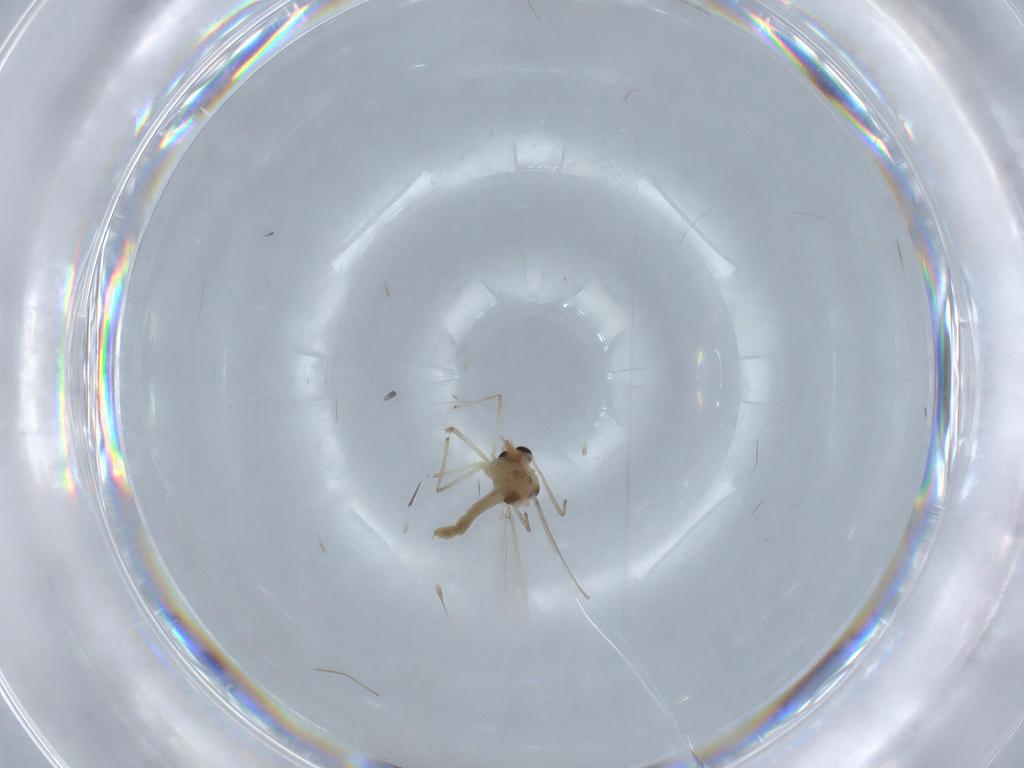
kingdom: Animalia
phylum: Arthropoda
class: Insecta
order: Diptera
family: Chironomidae
